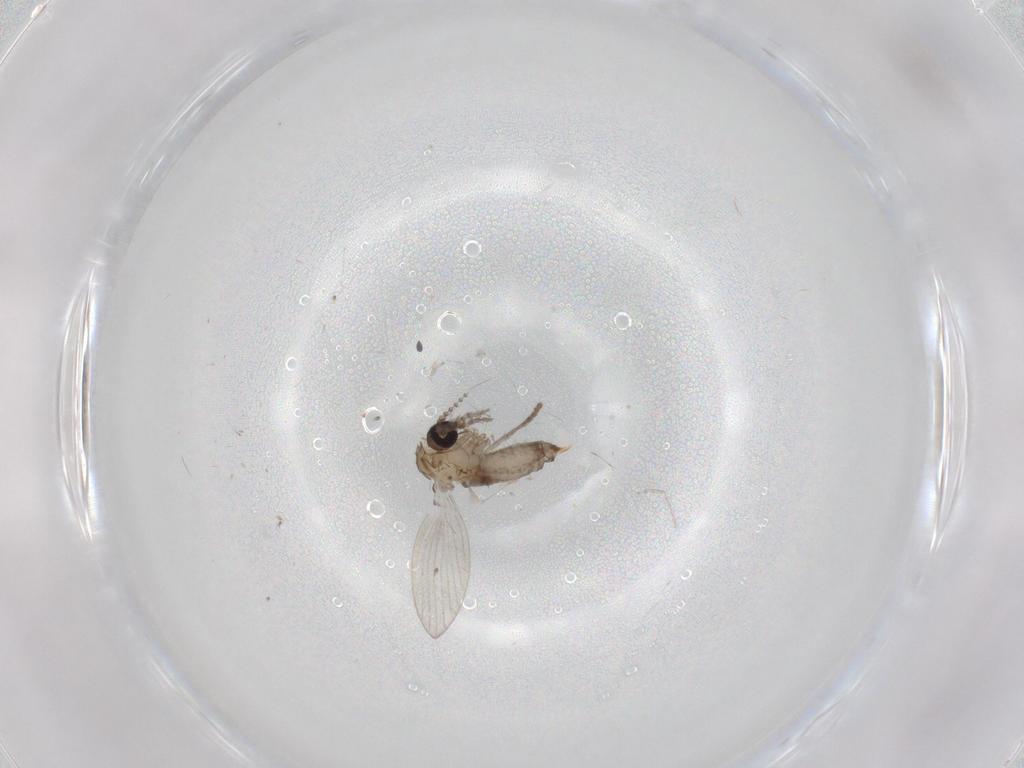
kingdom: Animalia
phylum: Arthropoda
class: Insecta
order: Diptera
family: Psychodidae
